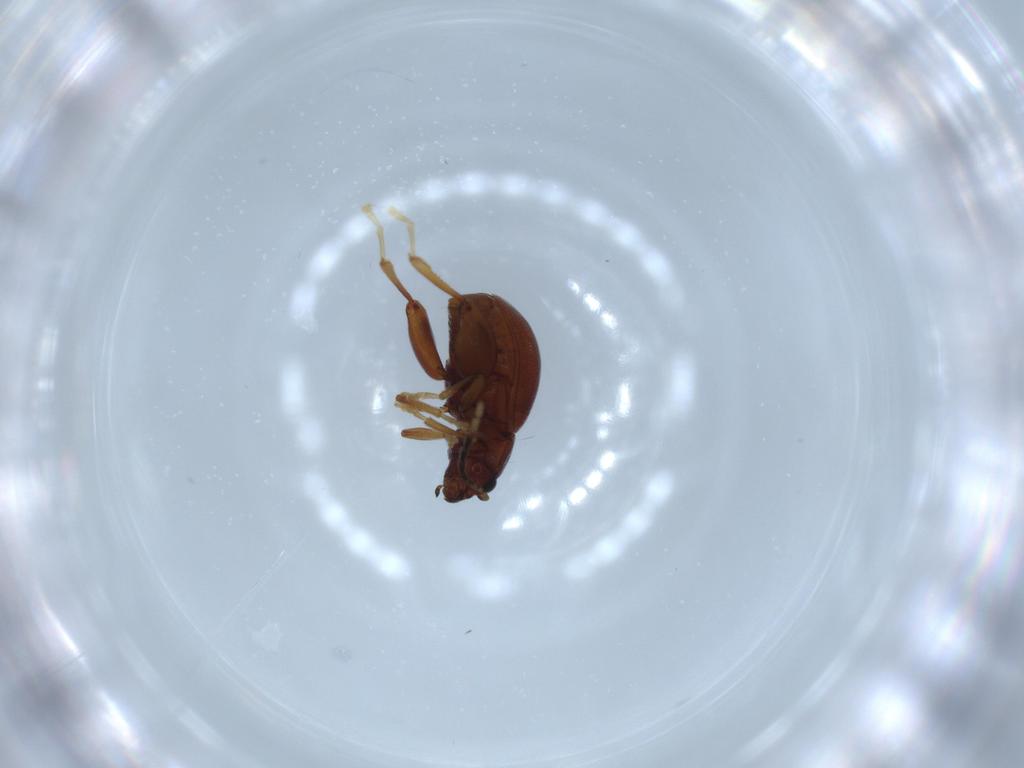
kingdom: Animalia
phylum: Arthropoda
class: Insecta
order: Coleoptera
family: Chrysomelidae
